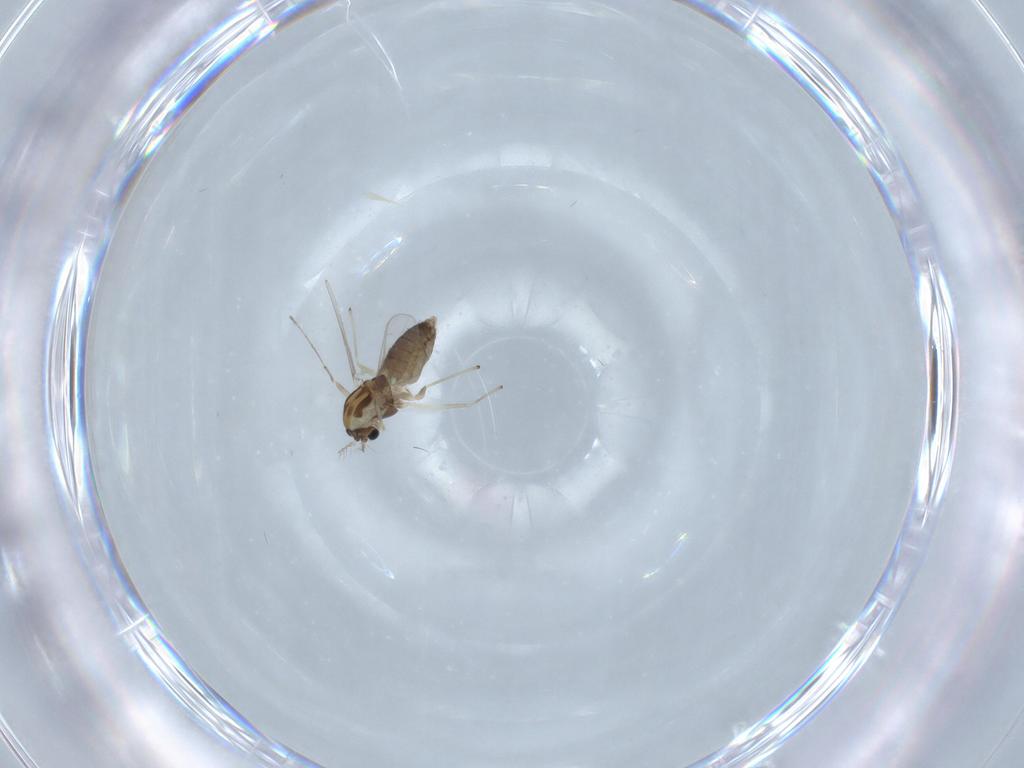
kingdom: Animalia
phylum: Arthropoda
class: Insecta
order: Diptera
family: Chironomidae
